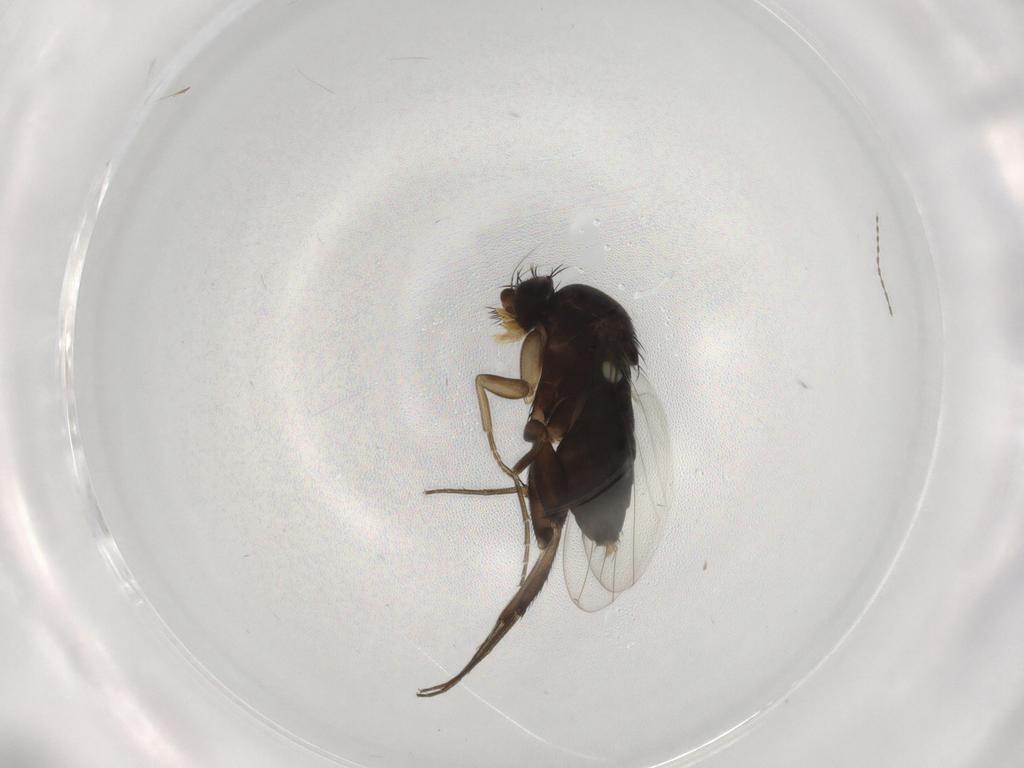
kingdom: Animalia
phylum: Arthropoda
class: Insecta
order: Diptera
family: Phoridae
